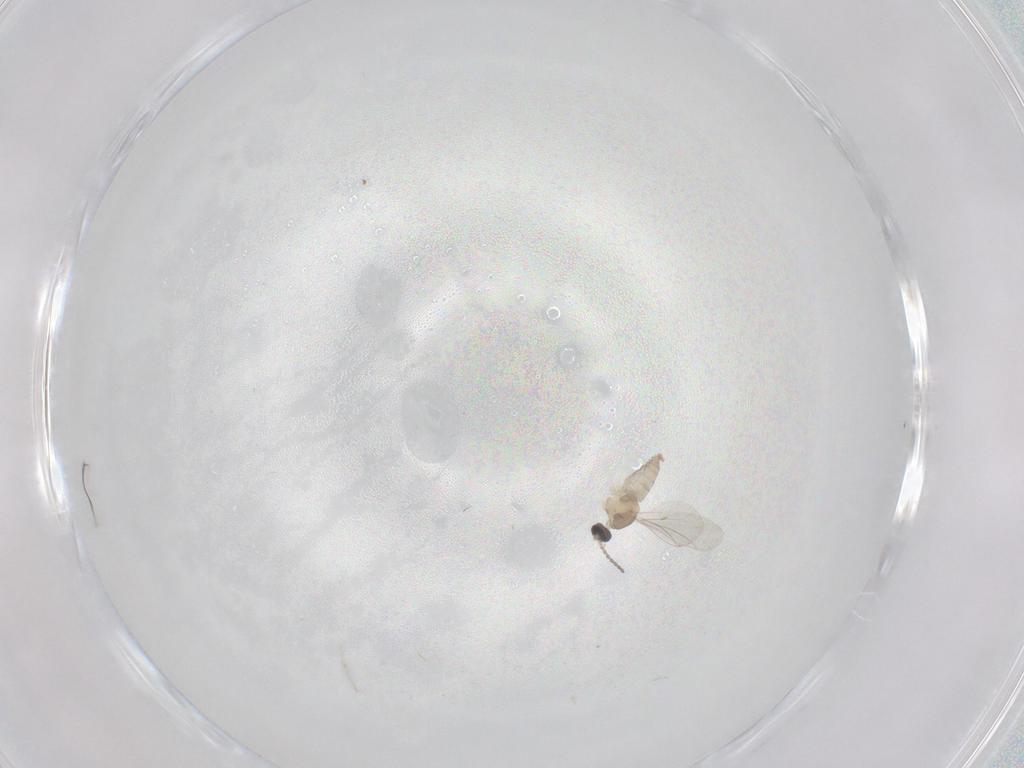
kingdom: Animalia
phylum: Arthropoda
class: Insecta
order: Diptera
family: Cecidomyiidae
